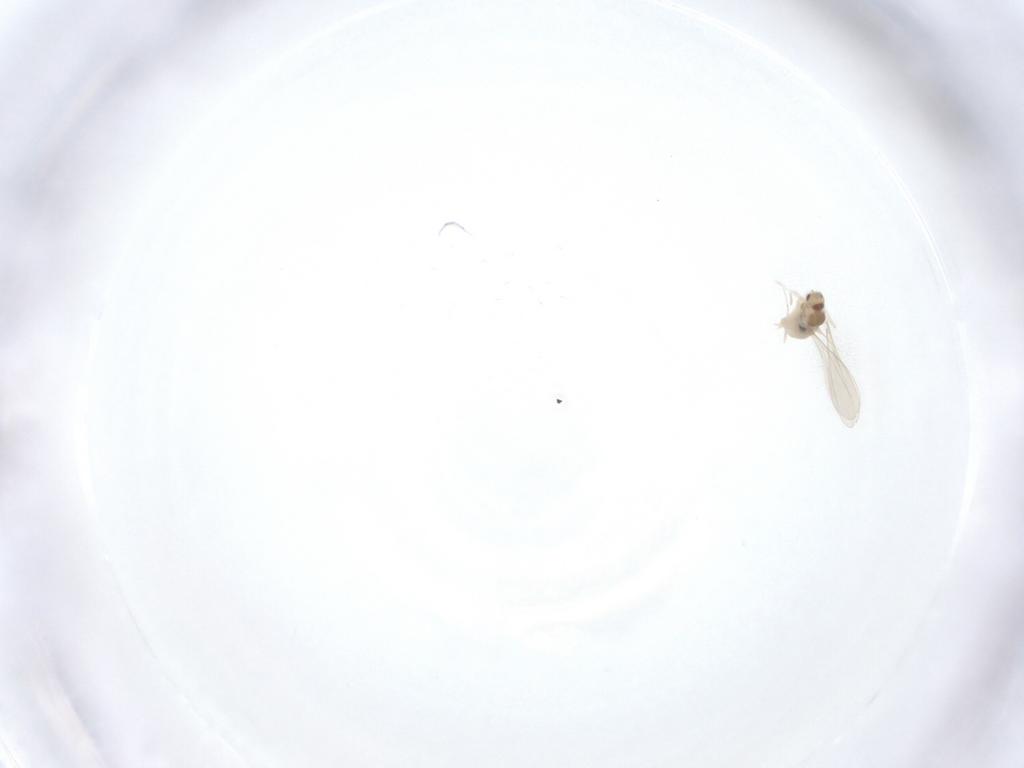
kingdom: Animalia
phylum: Arthropoda
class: Insecta
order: Diptera
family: Cecidomyiidae
